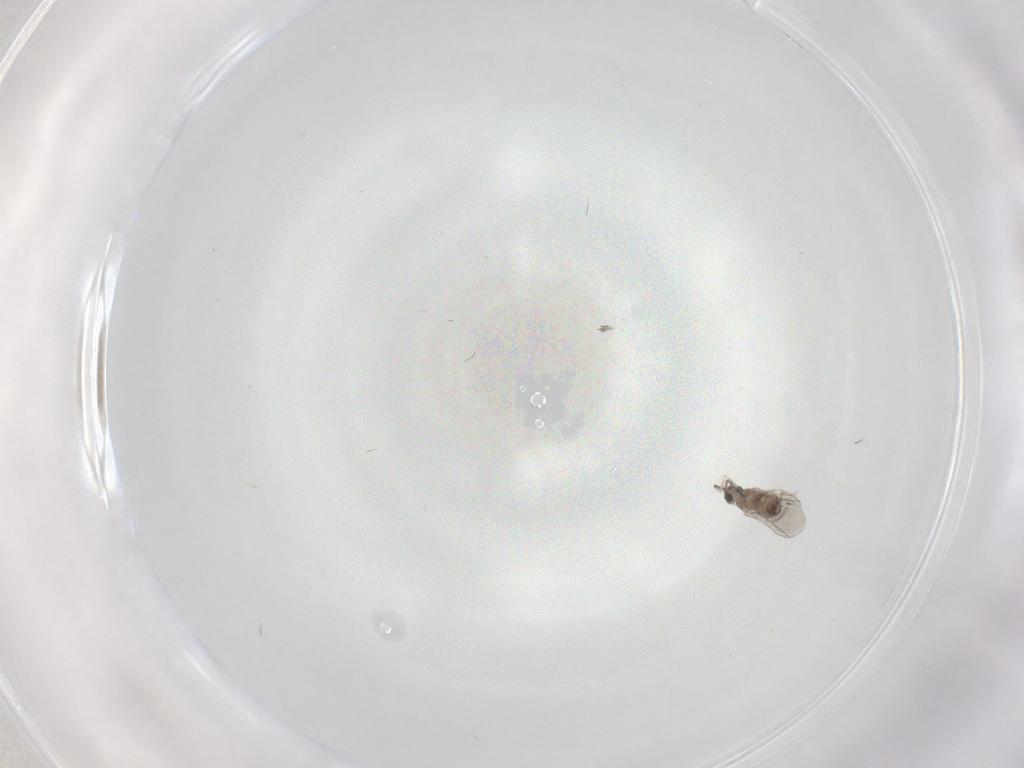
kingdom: Animalia
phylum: Arthropoda
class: Insecta
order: Diptera
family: Cecidomyiidae
